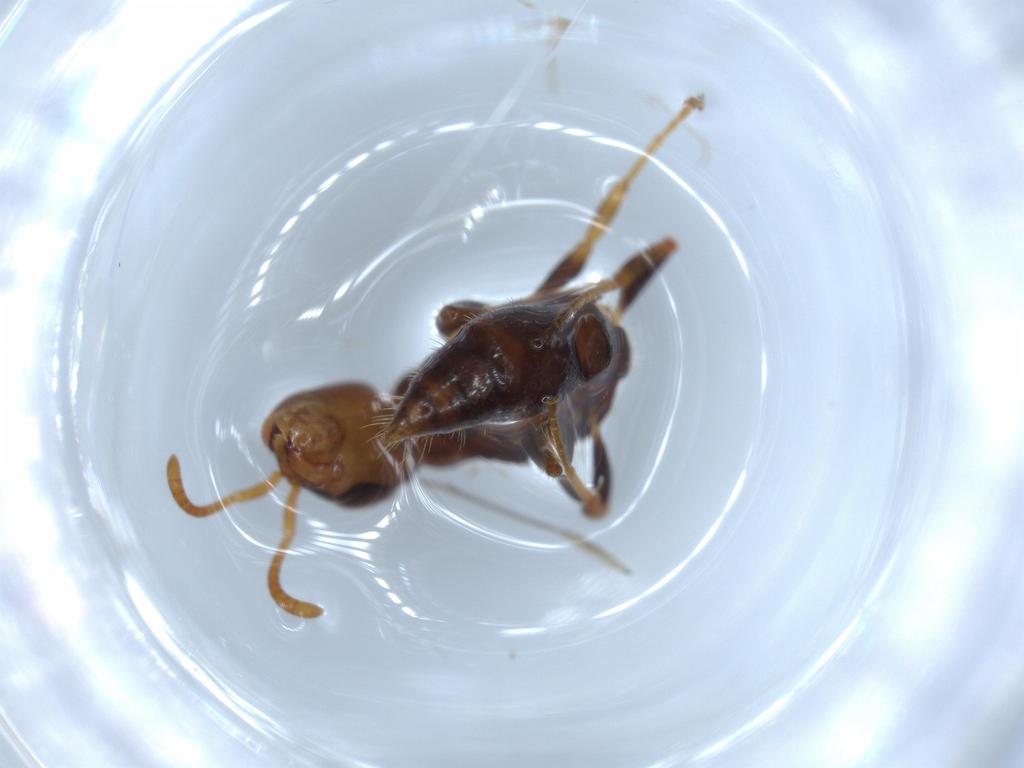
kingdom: Animalia
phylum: Arthropoda
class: Insecta
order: Hymenoptera
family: Formicidae
